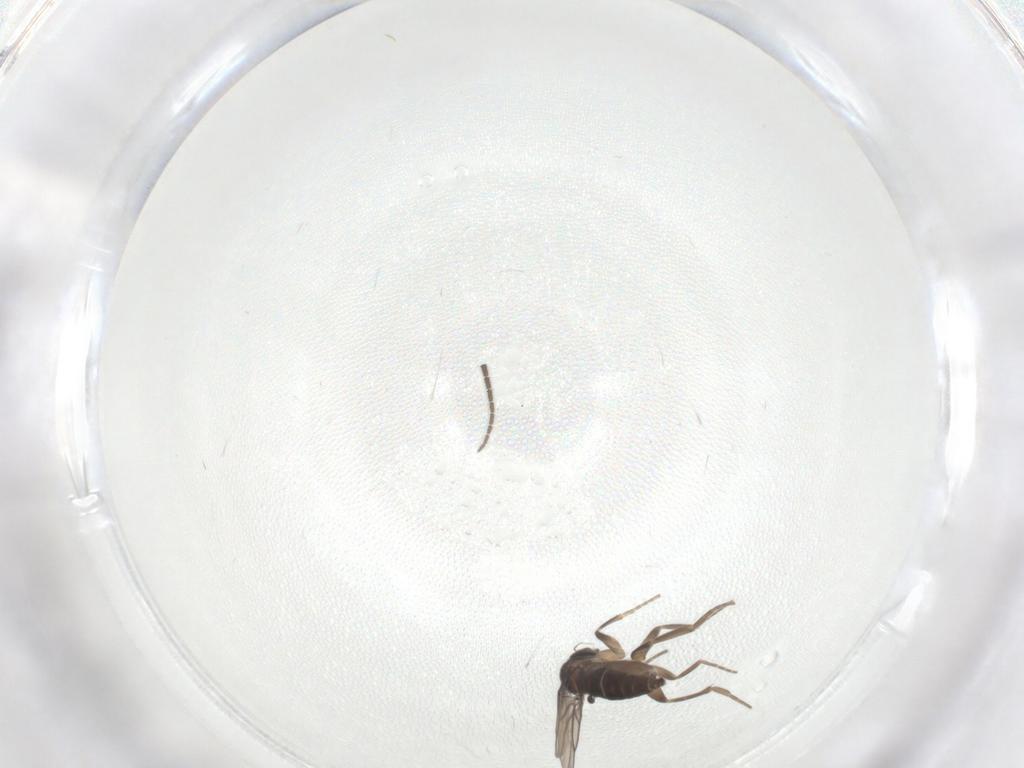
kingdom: Animalia
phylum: Arthropoda
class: Insecta
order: Diptera
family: Sciaridae
